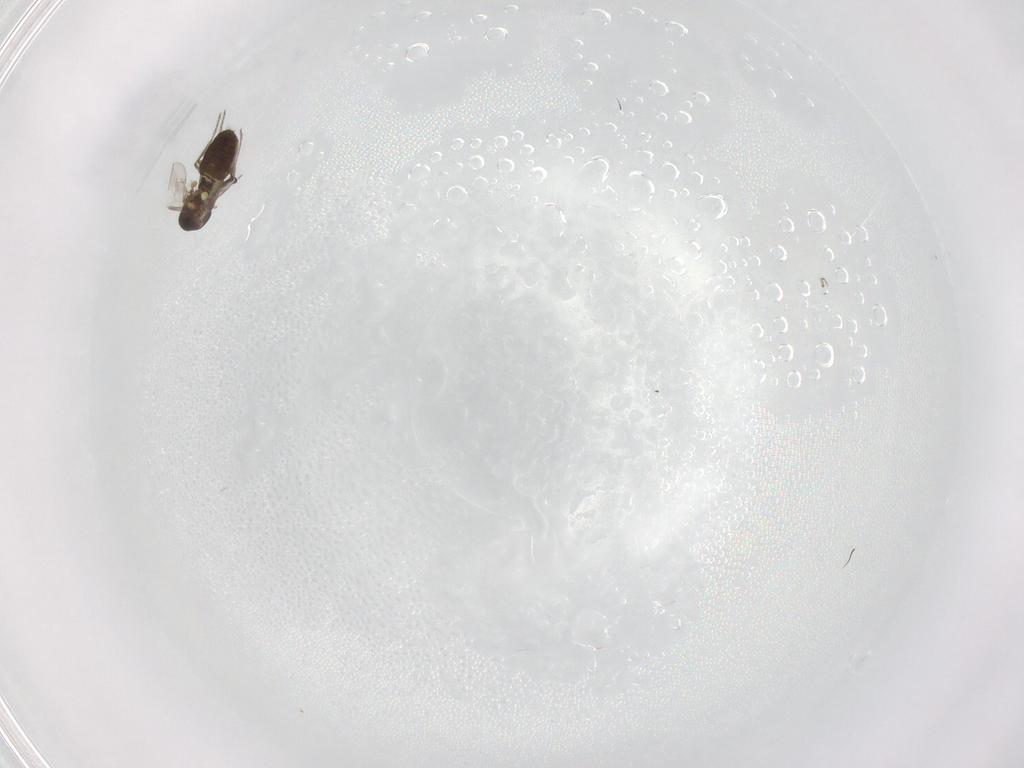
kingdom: Animalia
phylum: Arthropoda
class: Insecta
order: Diptera
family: Ceratopogonidae
